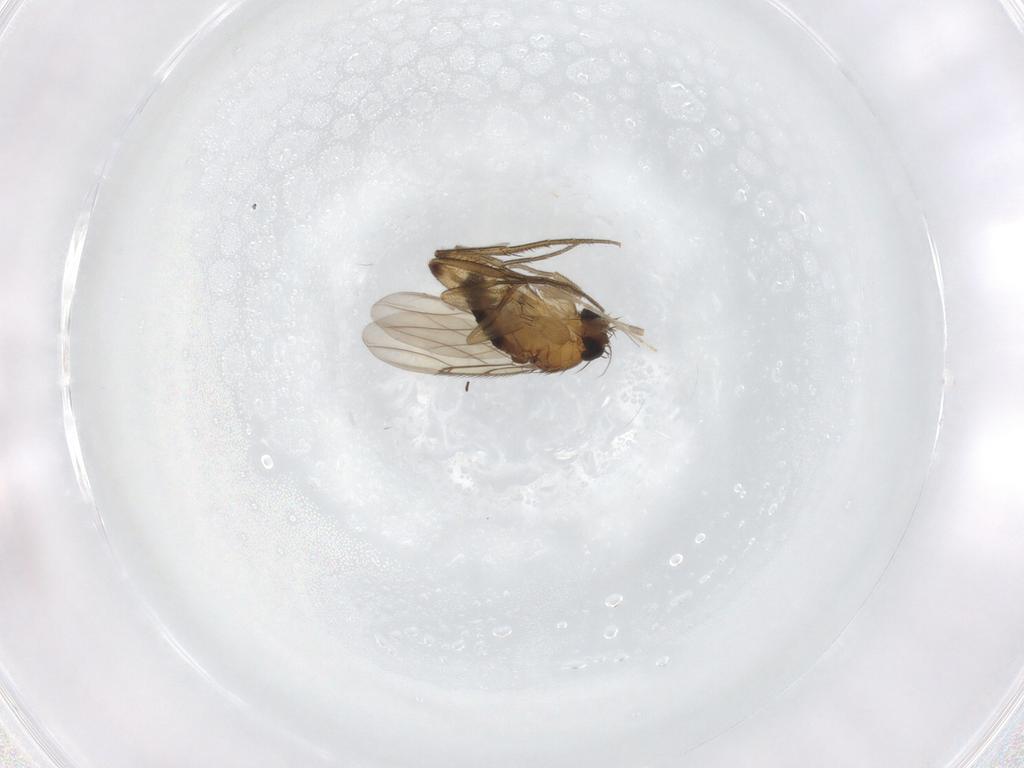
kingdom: Animalia
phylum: Arthropoda
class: Insecta
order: Diptera
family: Phoridae
